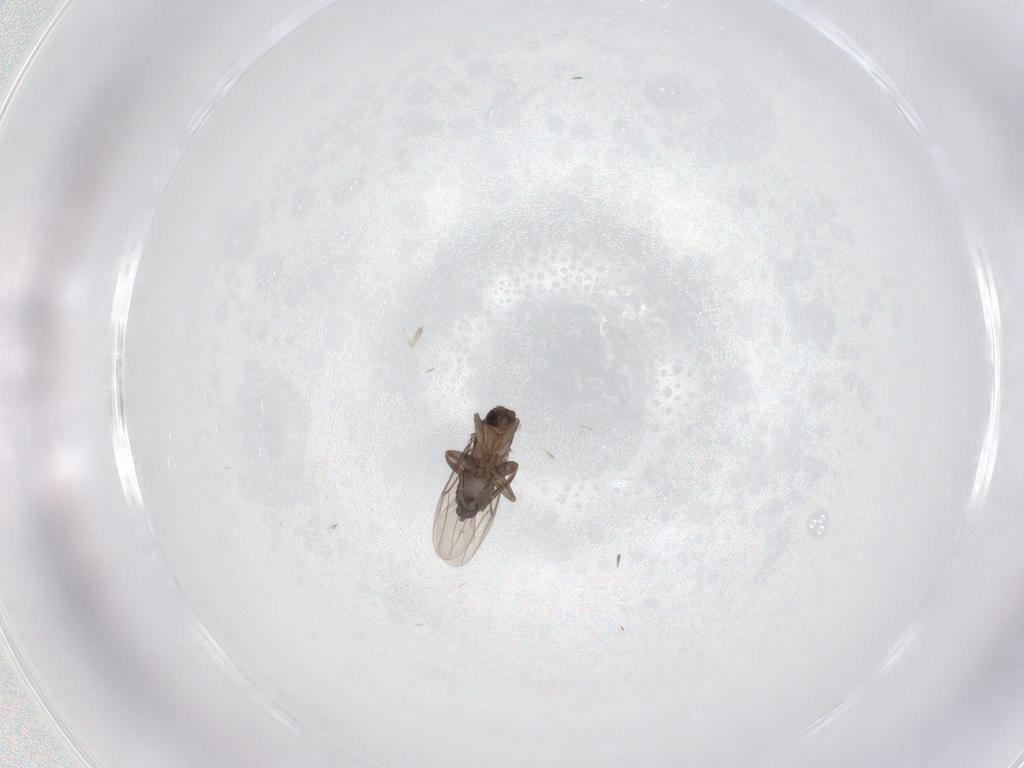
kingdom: Animalia
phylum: Arthropoda
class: Insecta
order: Diptera
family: Phoridae
